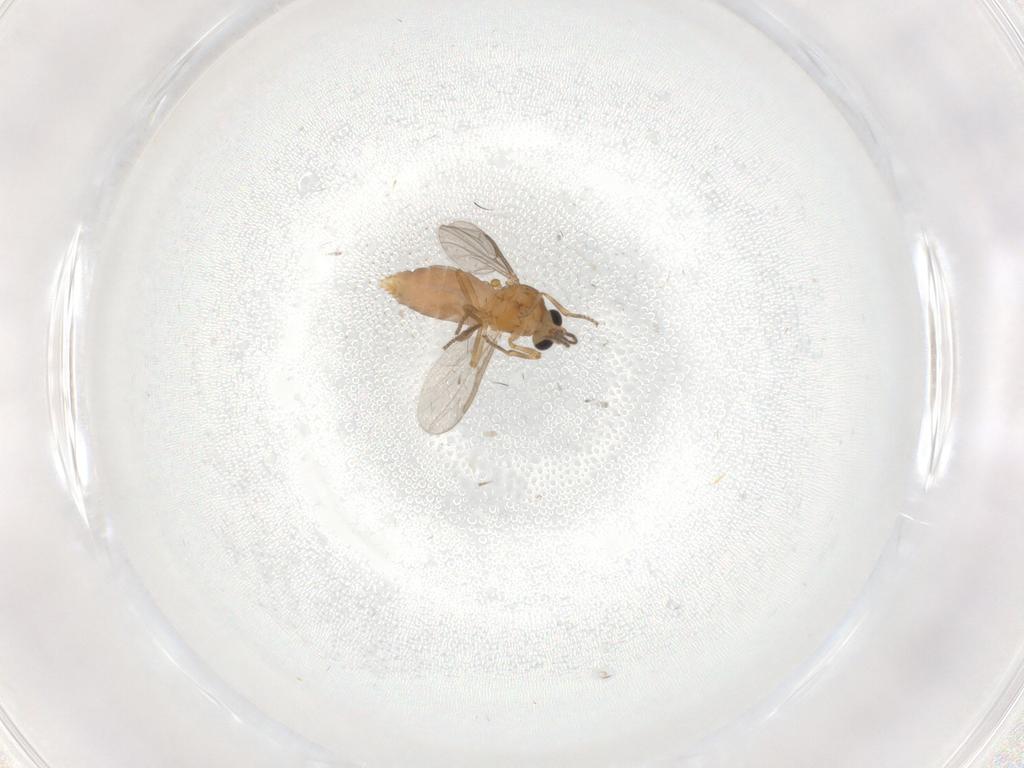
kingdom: Animalia
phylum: Arthropoda
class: Insecta
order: Diptera
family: Ceratopogonidae
